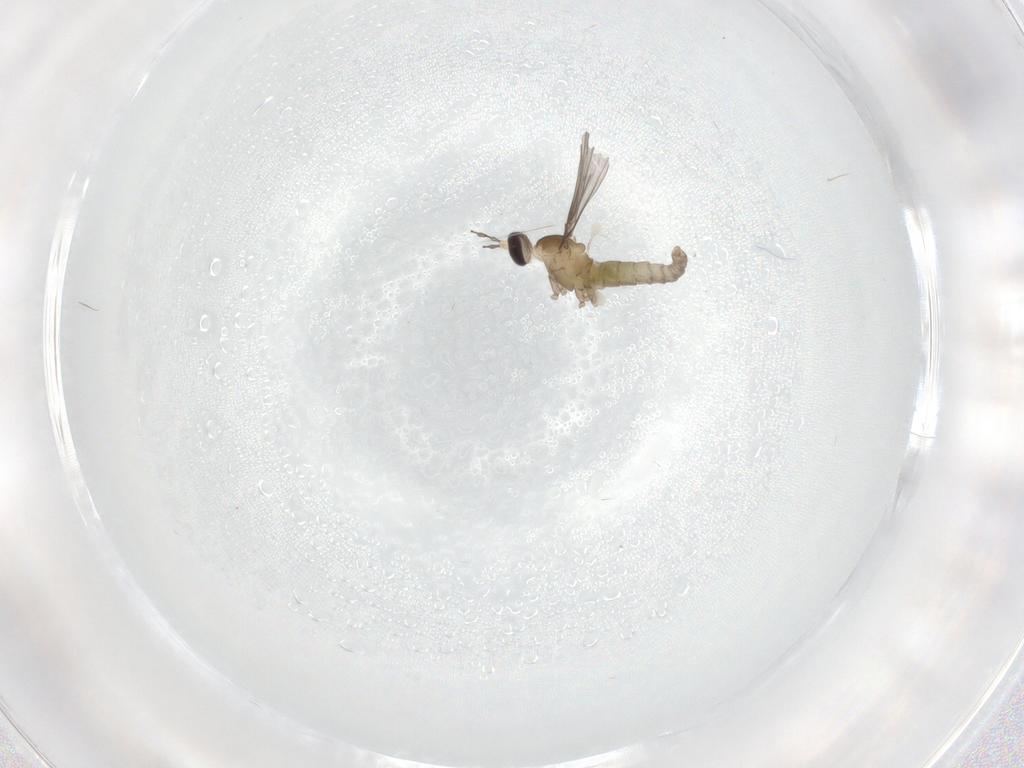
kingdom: Animalia
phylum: Arthropoda
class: Insecta
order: Diptera
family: Cecidomyiidae
